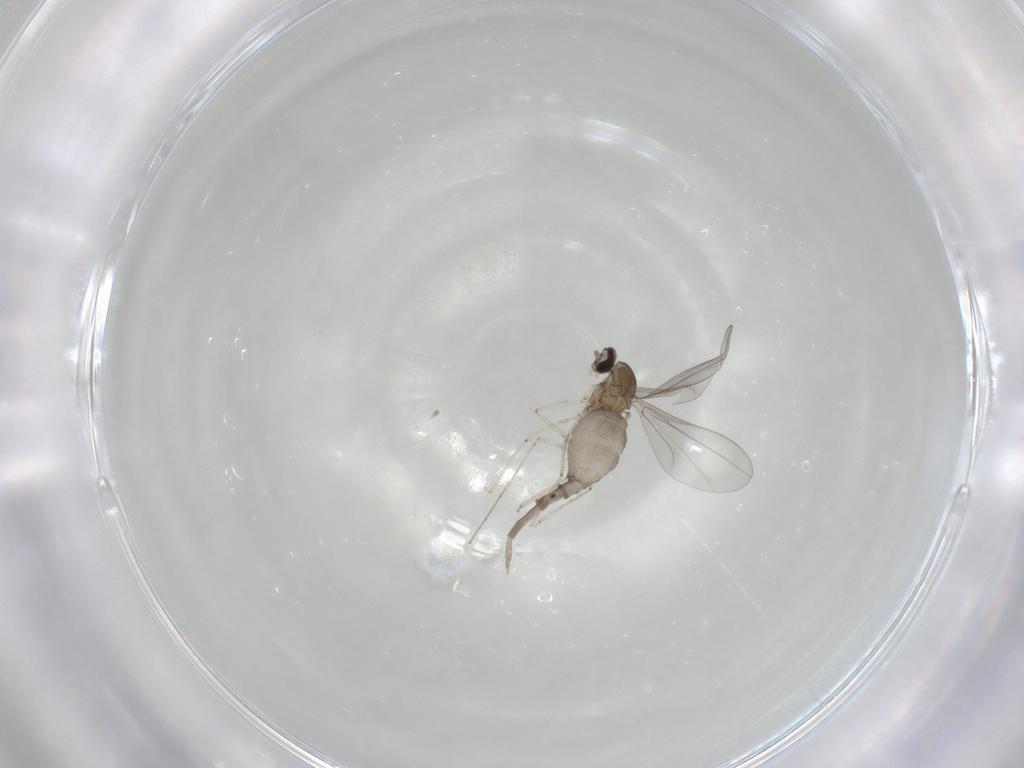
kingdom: Animalia
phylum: Arthropoda
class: Insecta
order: Diptera
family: Cecidomyiidae
